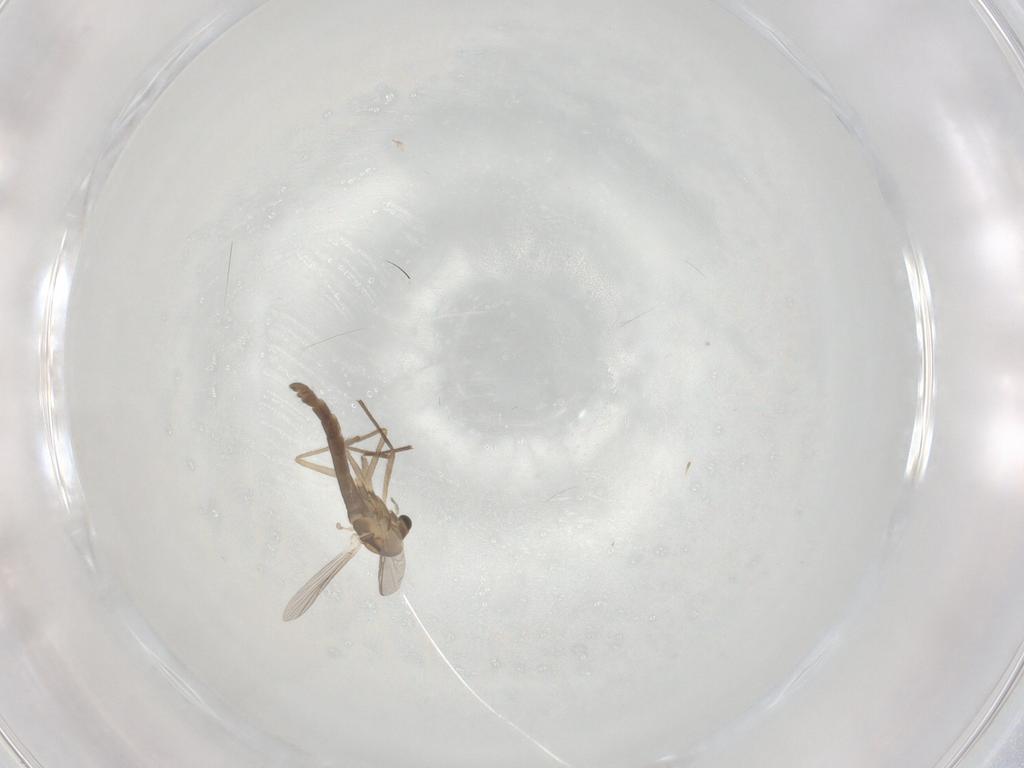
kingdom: Animalia
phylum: Arthropoda
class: Insecta
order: Diptera
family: Chironomidae
